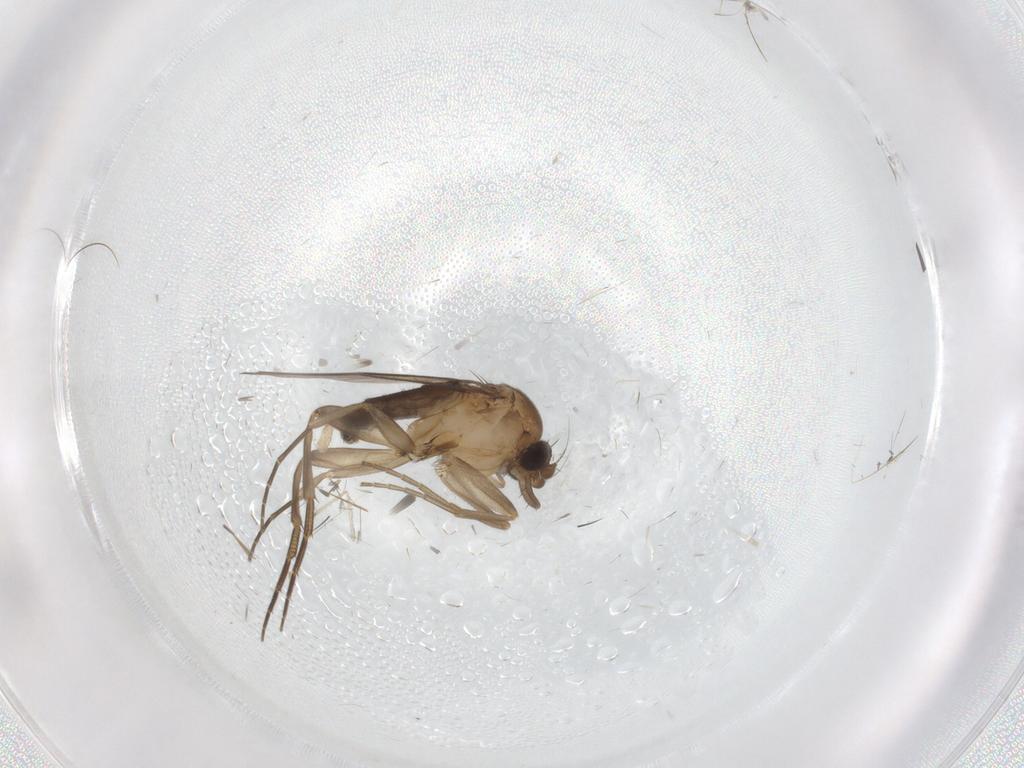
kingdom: Animalia
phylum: Arthropoda
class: Insecta
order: Diptera
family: Phoridae
